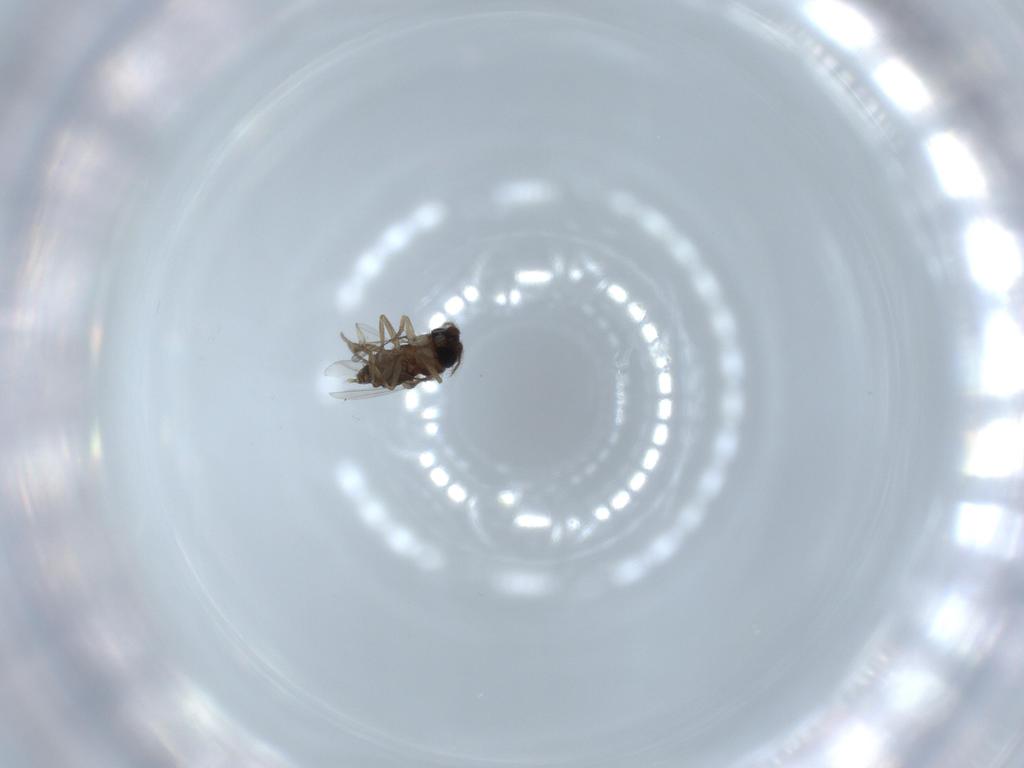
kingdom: Animalia
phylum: Arthropoda
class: Insecta
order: Diptera
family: Phoridae
